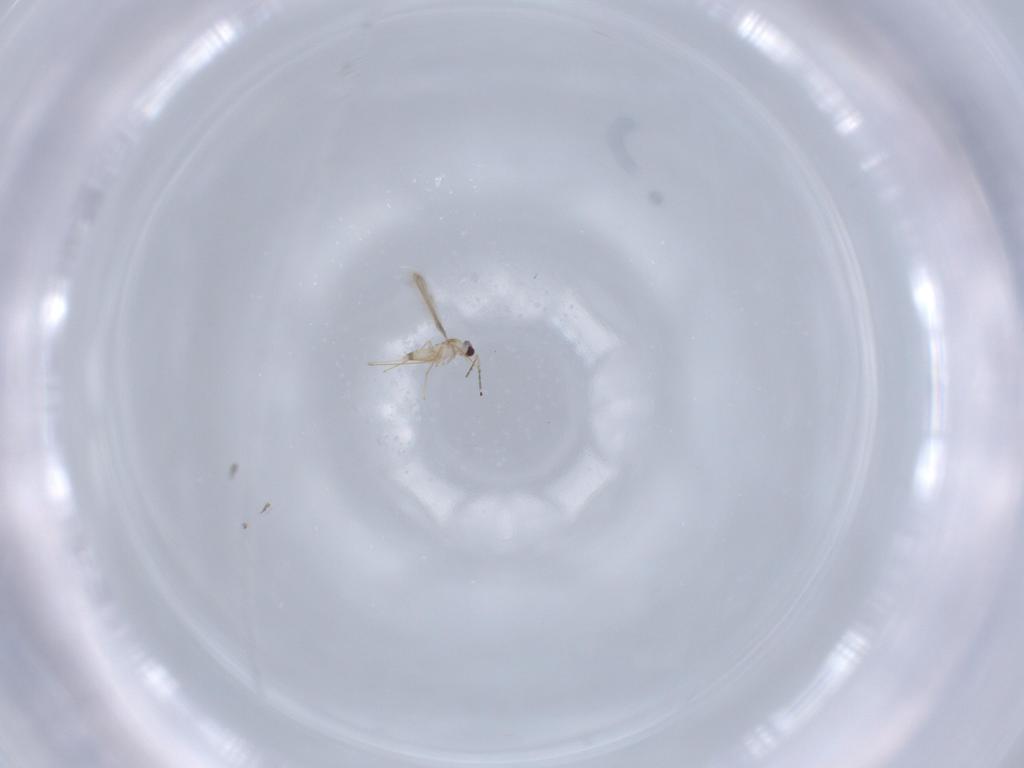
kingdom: Animalia
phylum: Arthropoda
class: Insecta
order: Hymenoptera
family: Mymaridae
